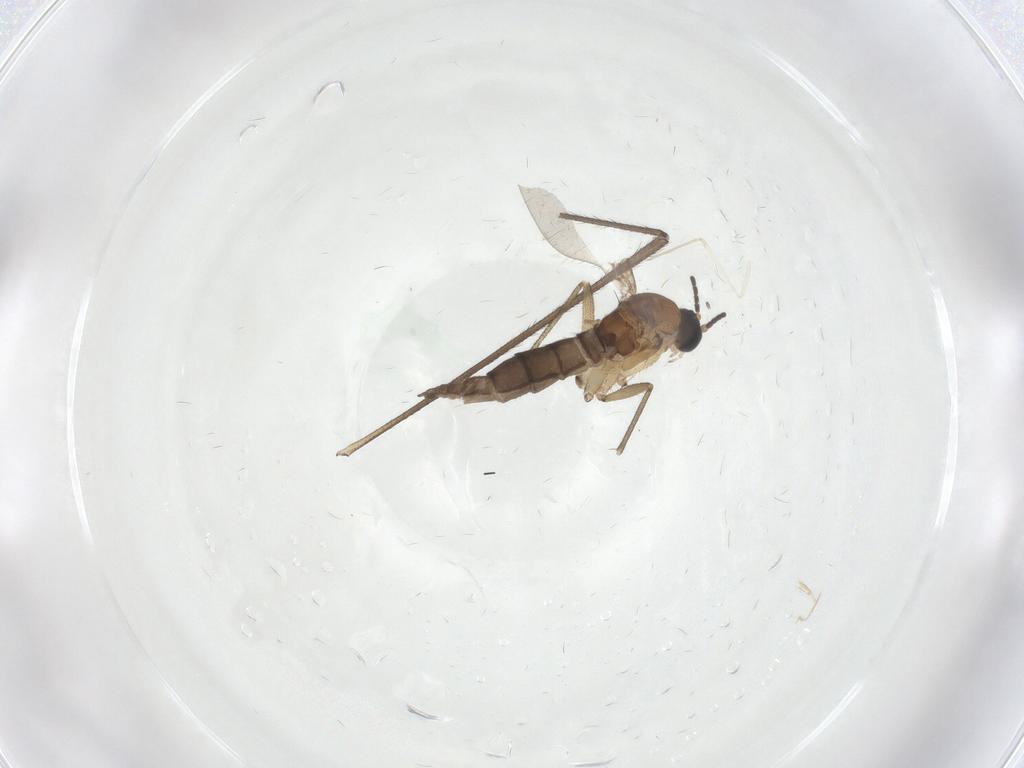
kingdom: Animalia
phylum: Arthropoda
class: Insecta
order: Diptera
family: Sciaridae
